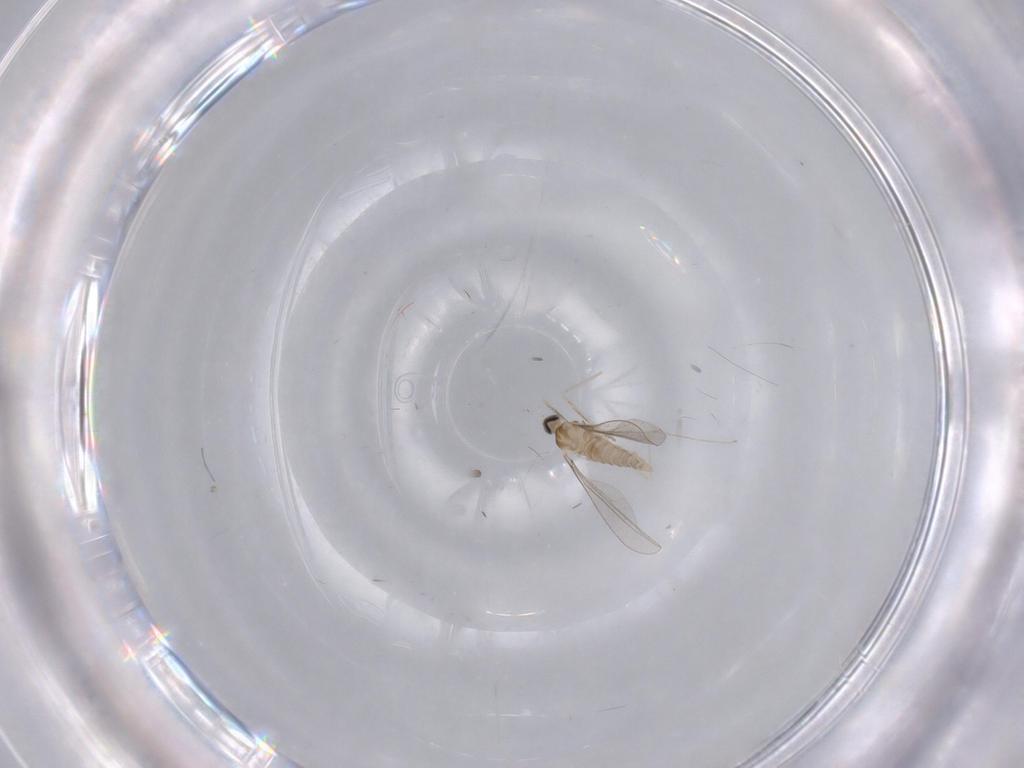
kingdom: Animalia
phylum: Arthropoda
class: Insecta
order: Diptera
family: Cecidomyiidae
